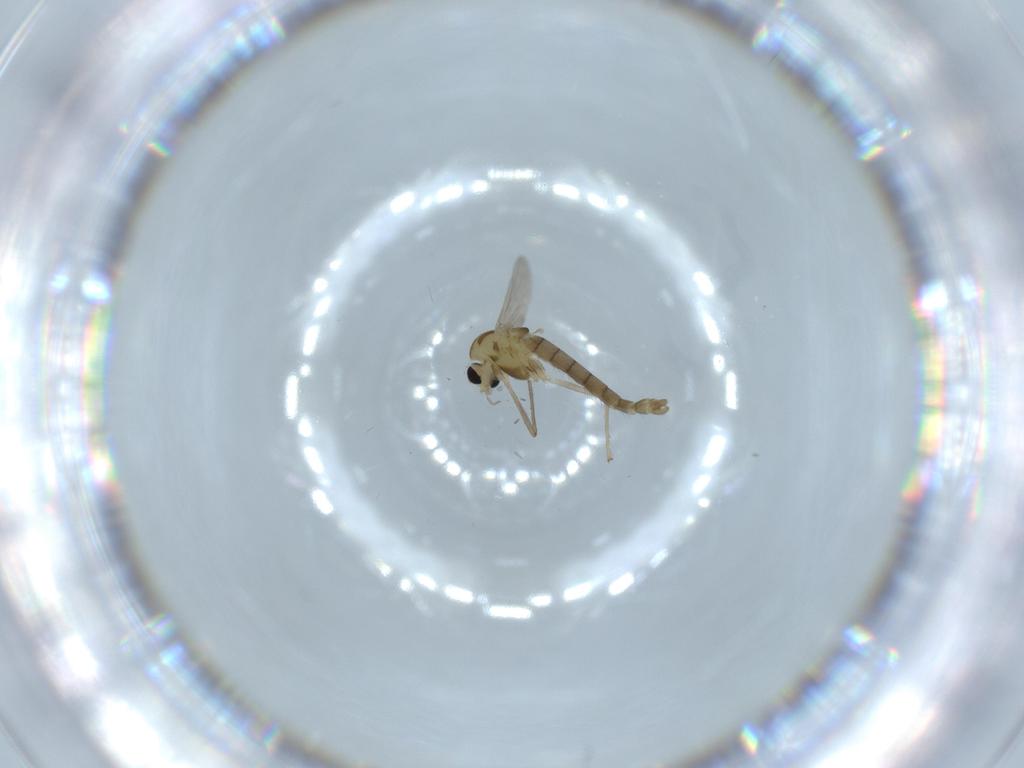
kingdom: Animalia
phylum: Arthropoda
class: Insecta
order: Diptera
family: Chironomidae
